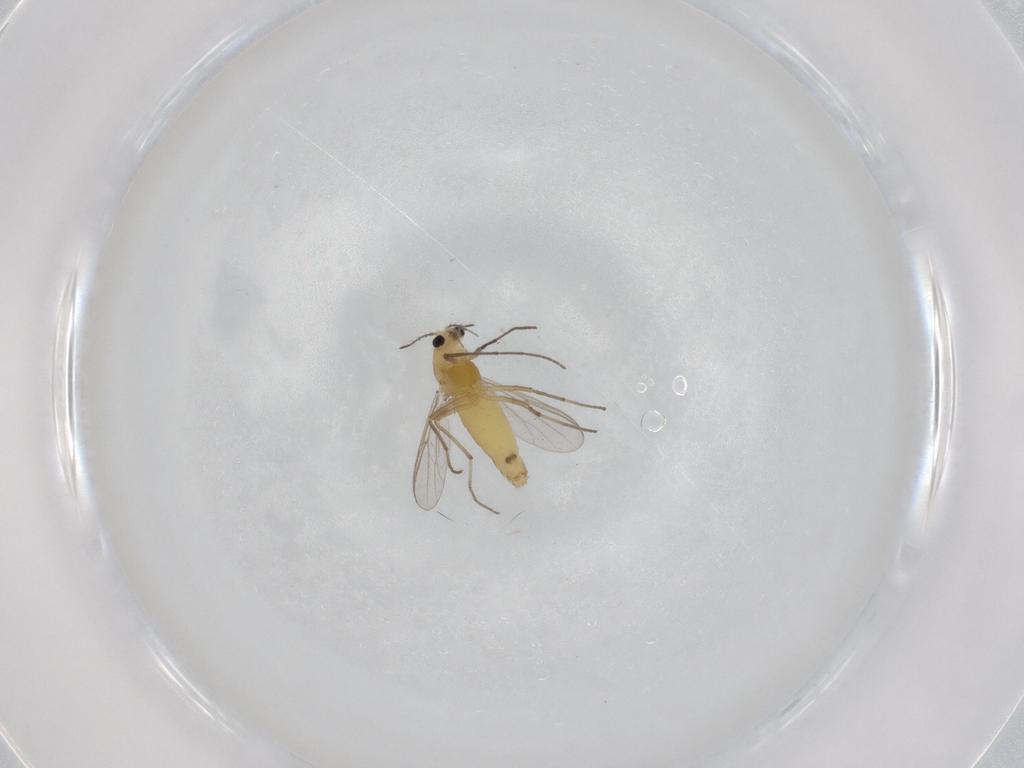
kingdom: Animalia
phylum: Arthropoda
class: Insecta
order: Diptera
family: Chironomidae
